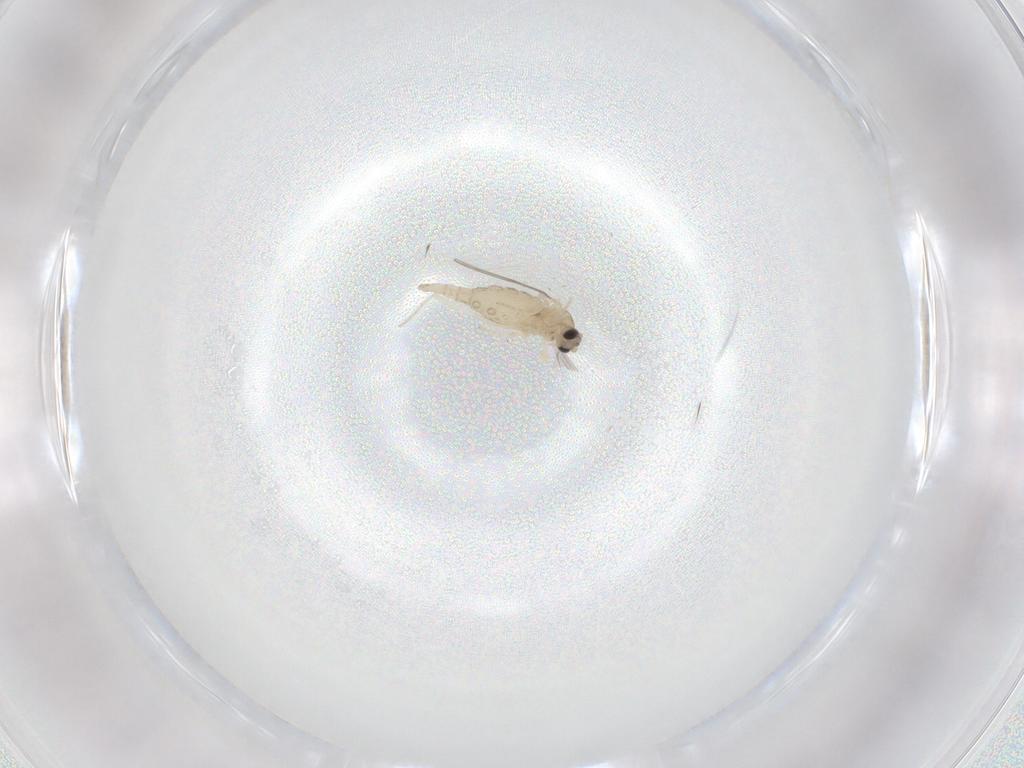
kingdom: Animalia
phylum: Arthropoda
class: Insecta
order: Diptera
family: Cecidomyiidae
